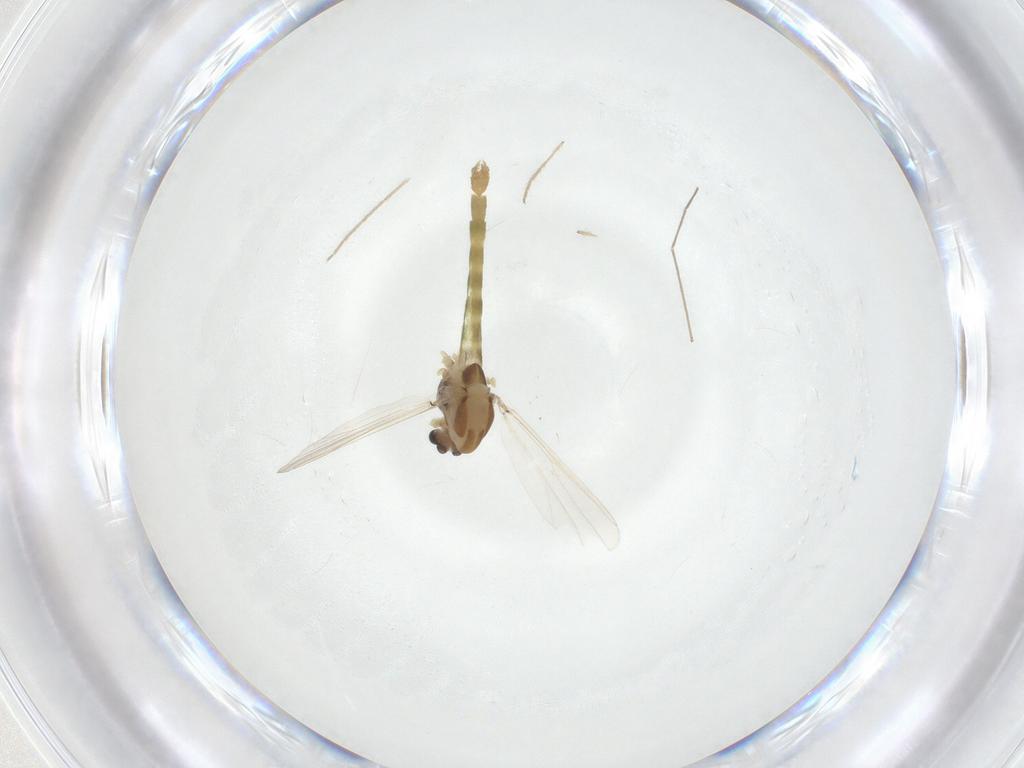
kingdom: Animalia
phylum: Arthropoda
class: Insecta
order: Diptera
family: Chironomidae
